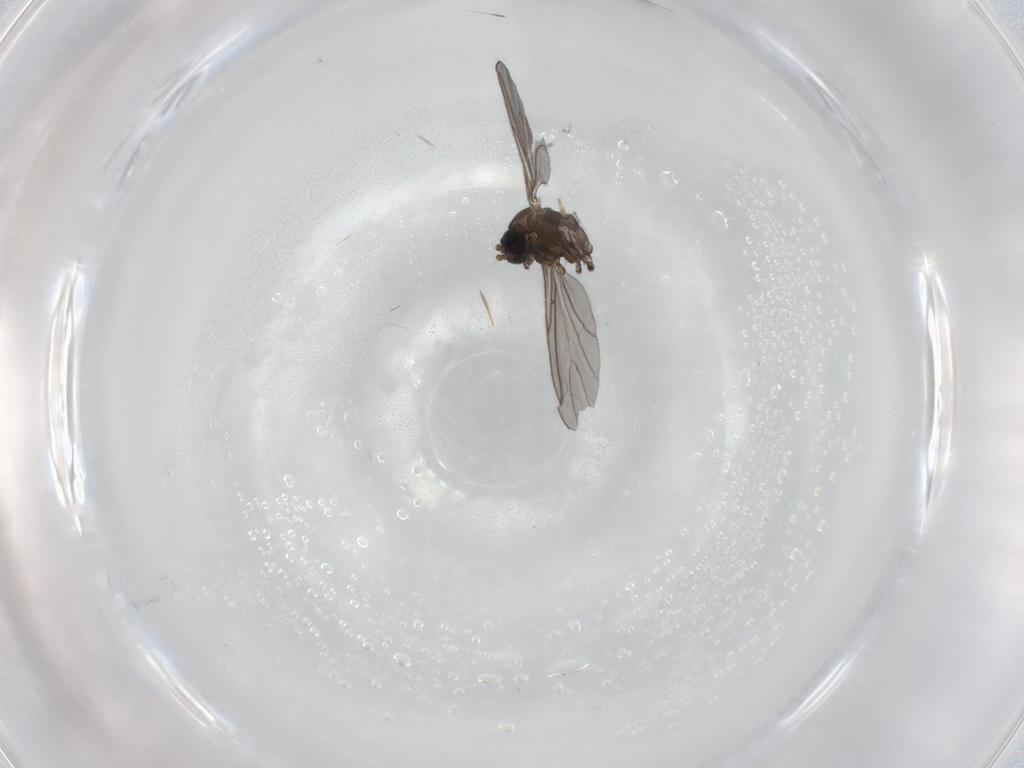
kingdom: Animalia
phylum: Arthropoda
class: Insecta
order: Diptera
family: Sciaridae
